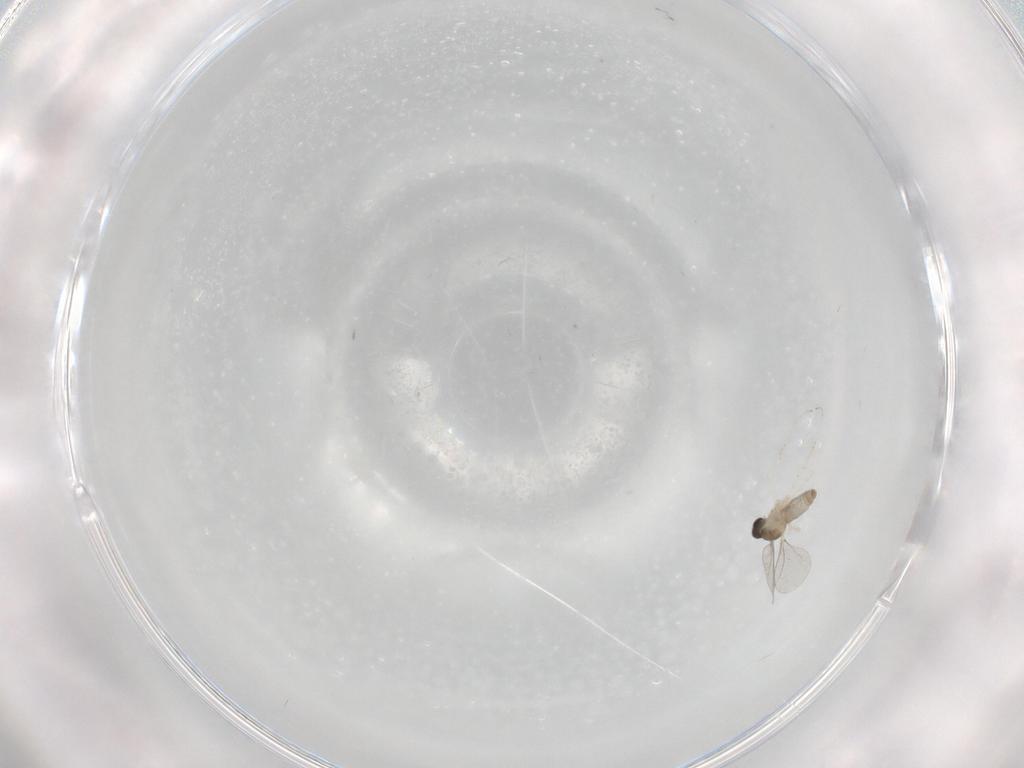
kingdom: Animalia
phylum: Arthropoda
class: Insecta
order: Diptera
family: Cecidomyiidae
